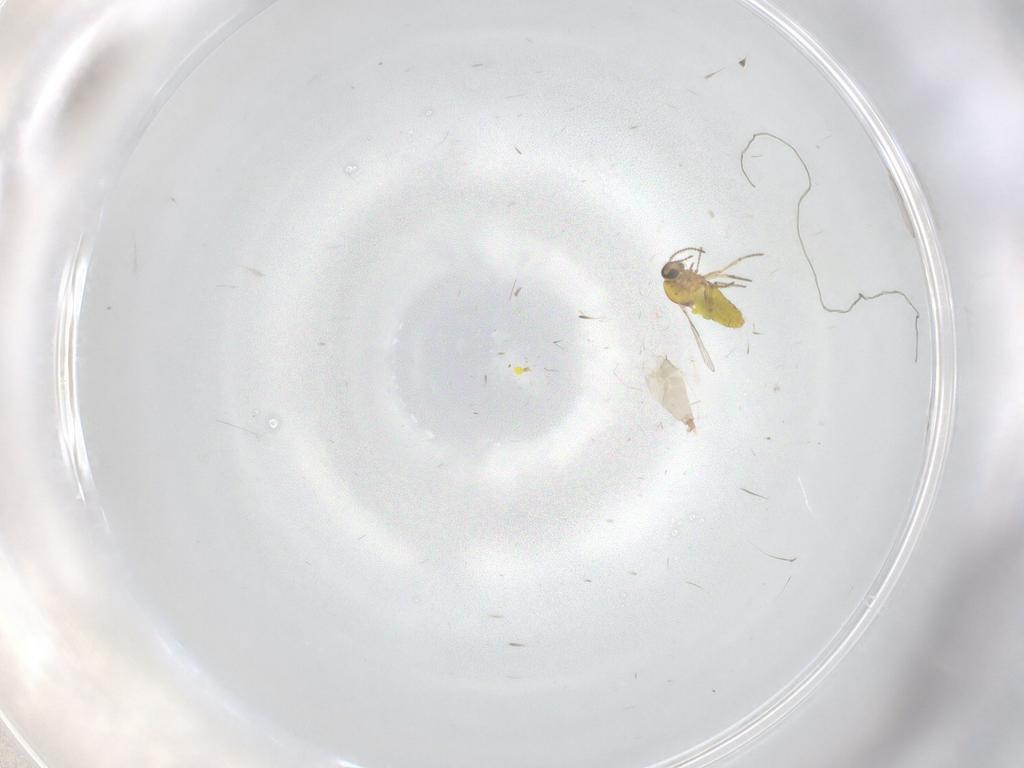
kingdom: Animalia
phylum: Arthropoda
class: Insecta
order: Diptera
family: Cecidomyiidae
